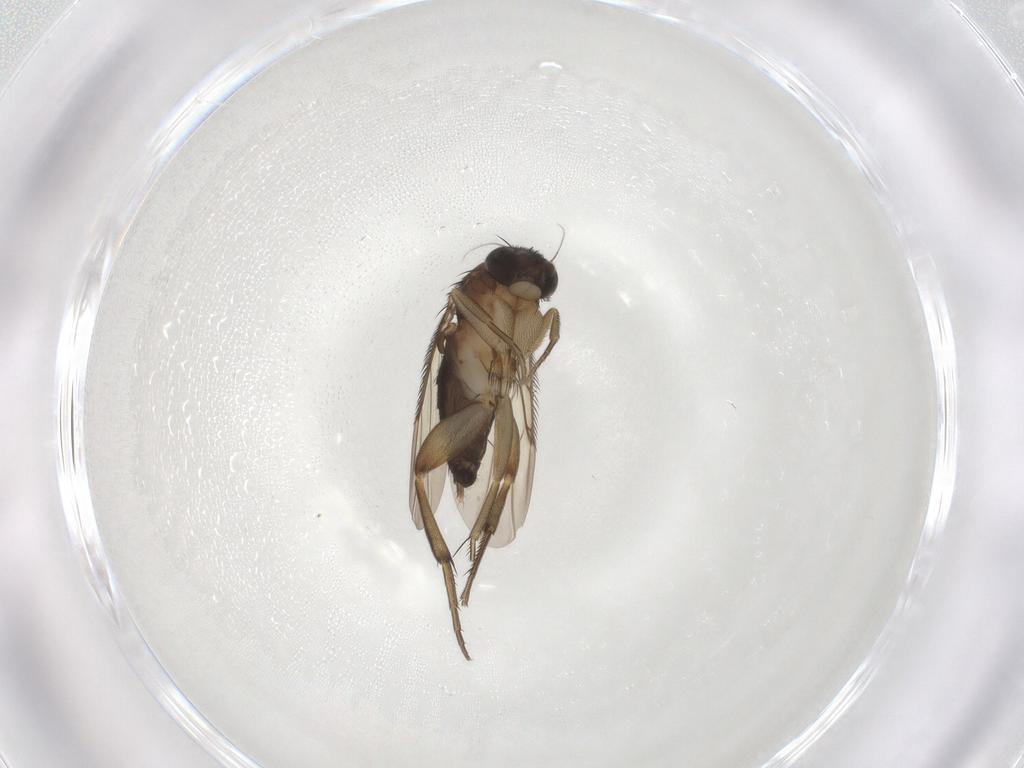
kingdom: Animalia
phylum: Arthropoda
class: Insecta
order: Diptera
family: Phoridae
